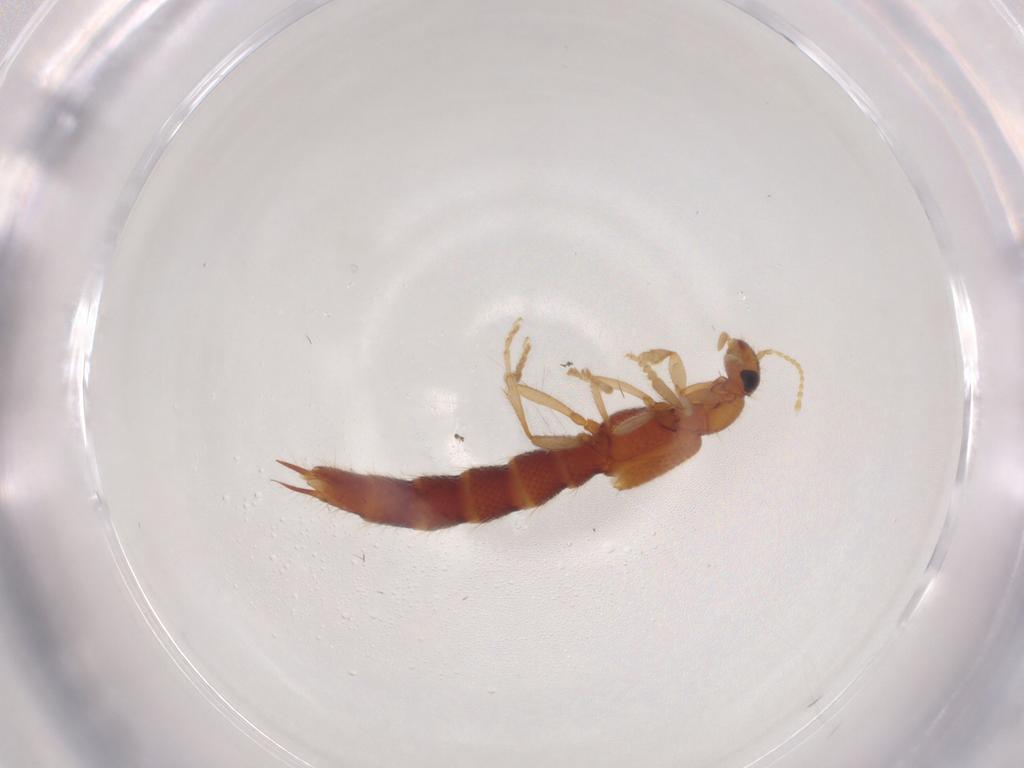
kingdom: Animalia
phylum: Arthropoda
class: Insecta
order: Coleoptera
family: Staphylinidae
